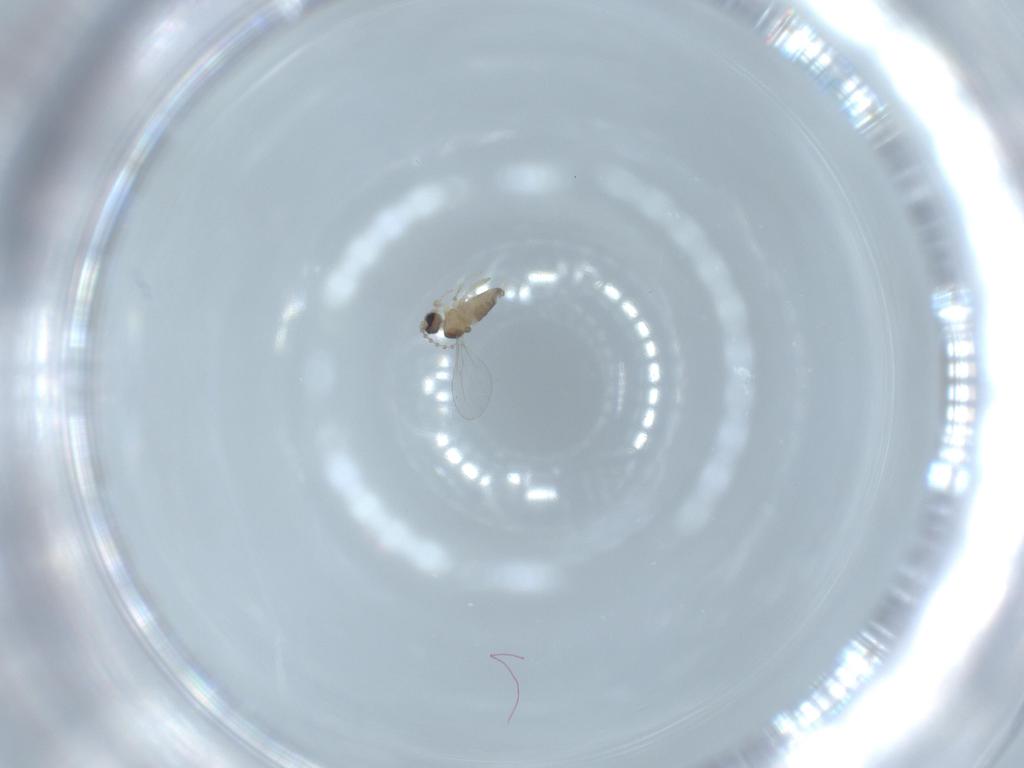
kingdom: Animalia
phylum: Arthropoda
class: Insecta
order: Diptera
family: Cecidomyiidae
